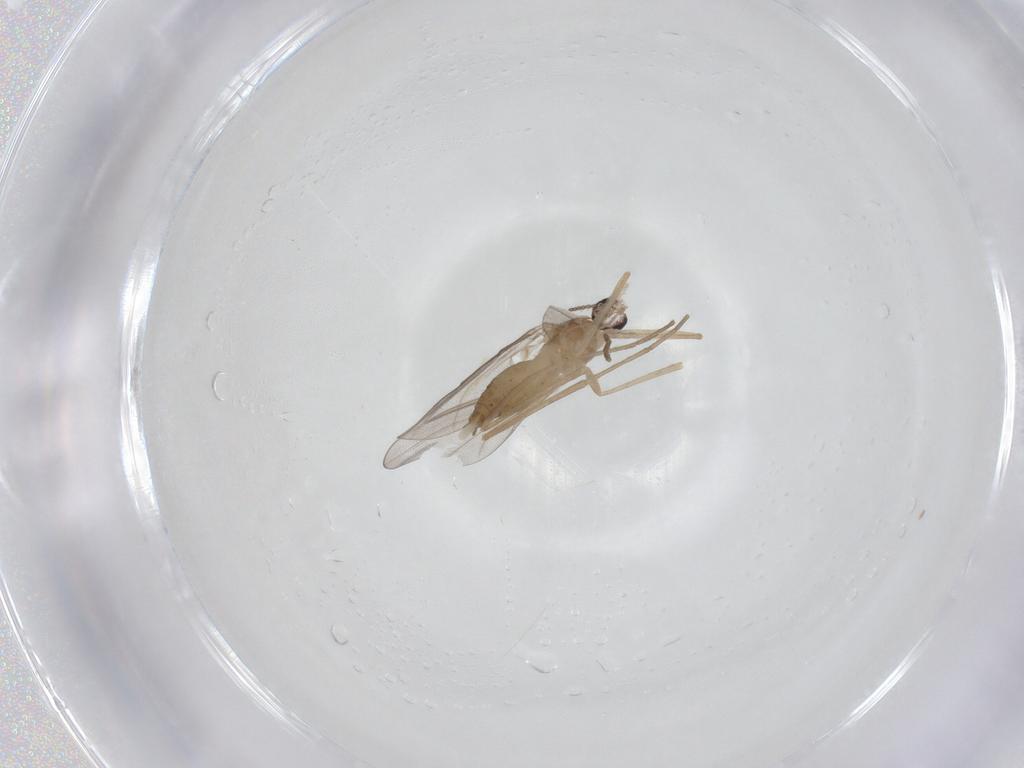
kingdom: Animalia
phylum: Arthropoda
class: Insecta
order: Diptera
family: Cecidomyiidae
